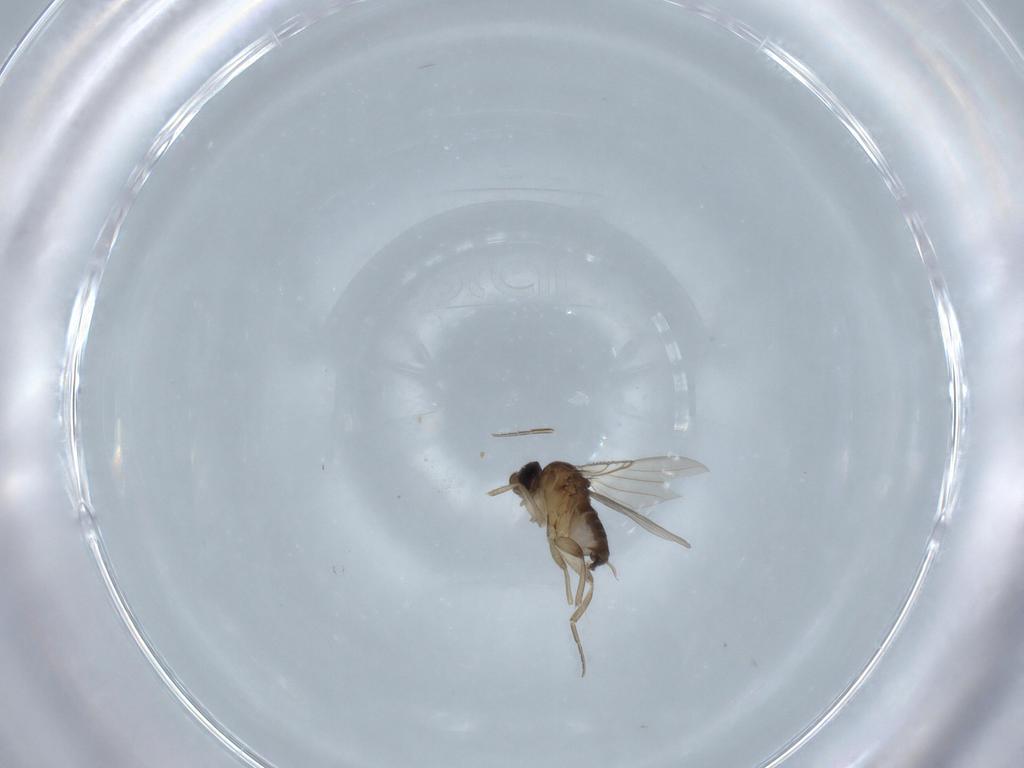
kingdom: Animalia
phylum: Arthropoda
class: Insecta
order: Diptera
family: Phoridae
